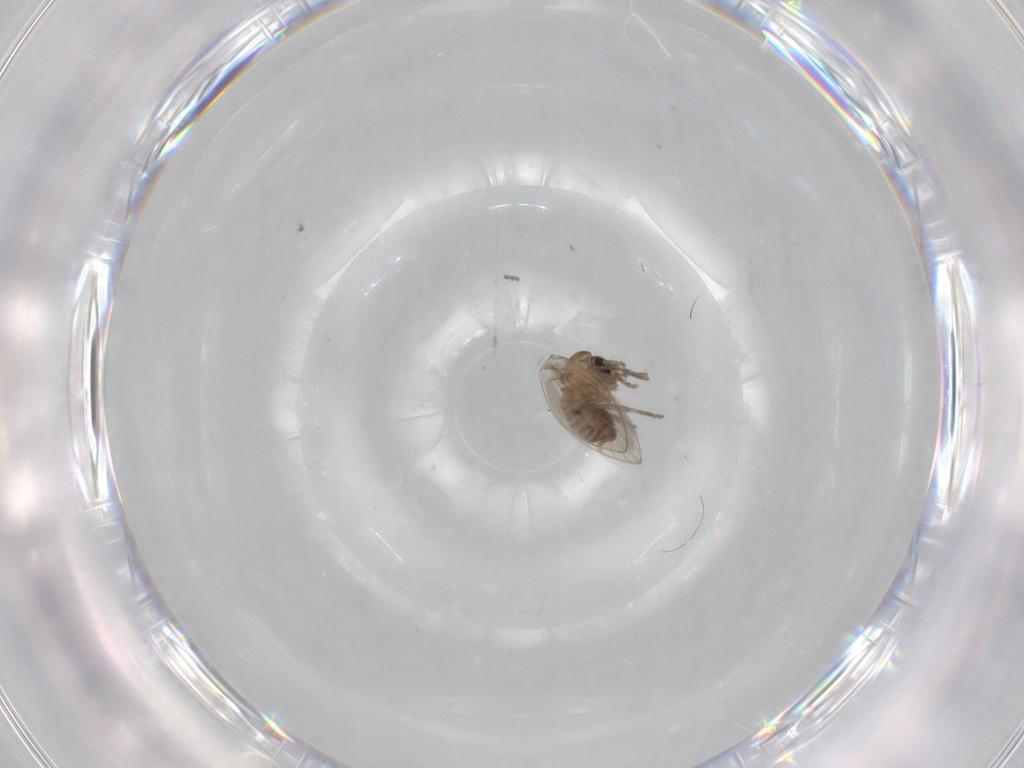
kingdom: Animalia
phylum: Arthropoda
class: Insecta
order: Diptera
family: Psychodidae
